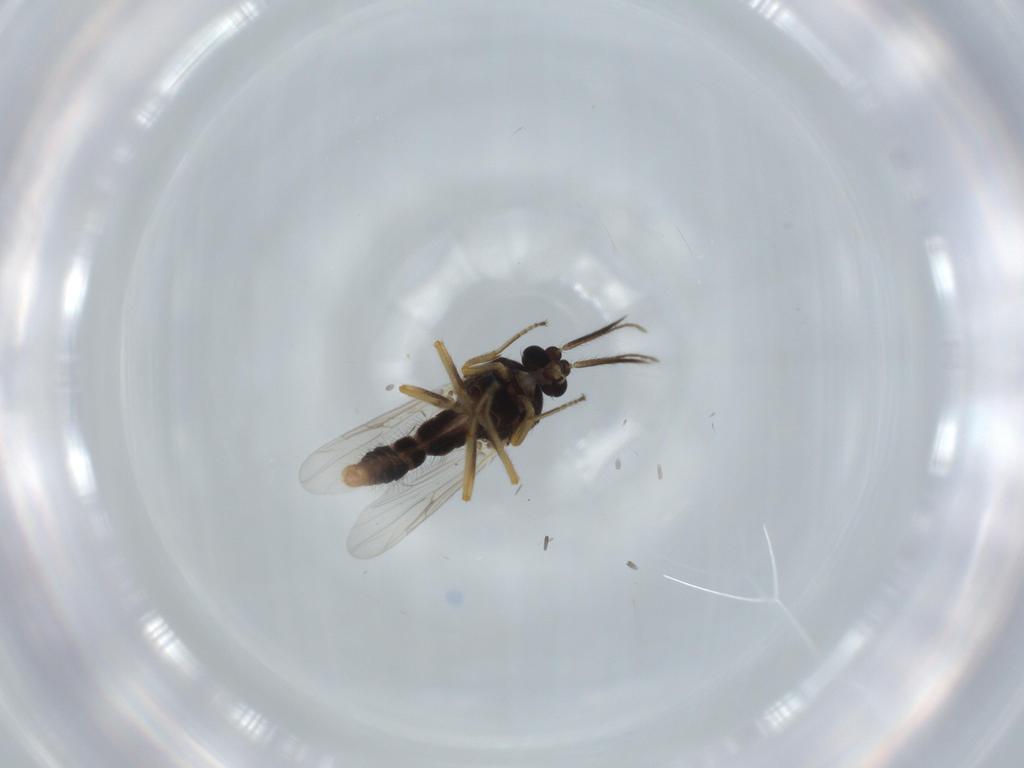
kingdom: Animalia
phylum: Arthropoda
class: Insecta
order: Diptera
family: Ceratopogonidae
